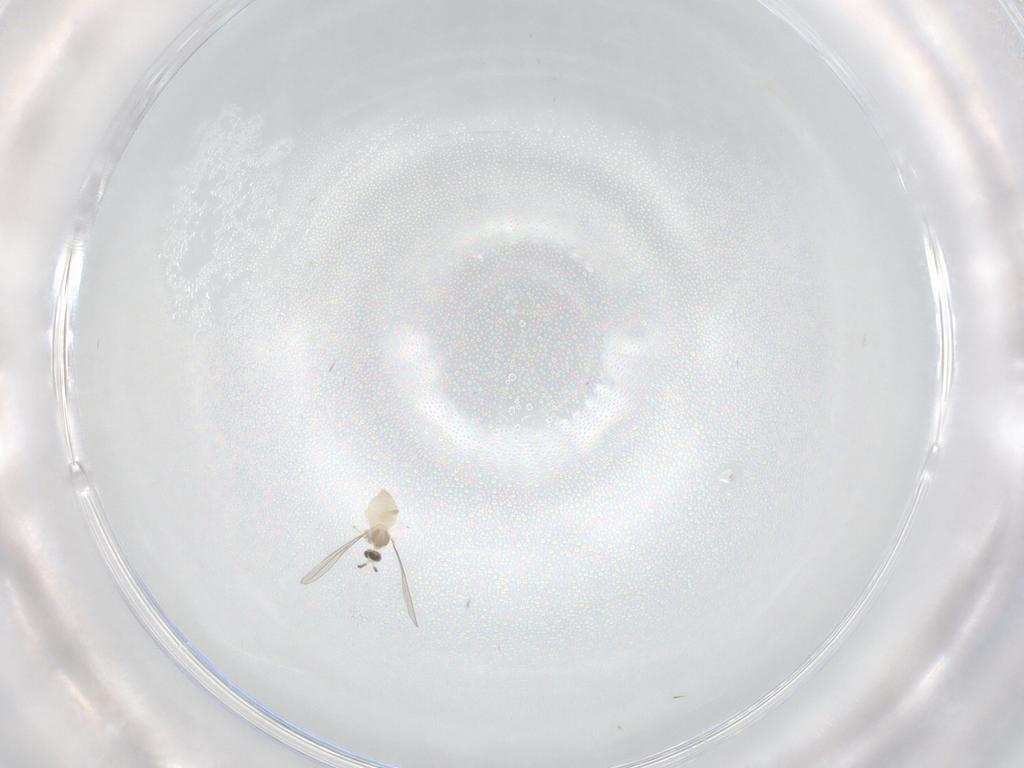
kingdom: Animalia
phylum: Arthropoda
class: Insecta
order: Diptera
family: Cecidomyiidae
